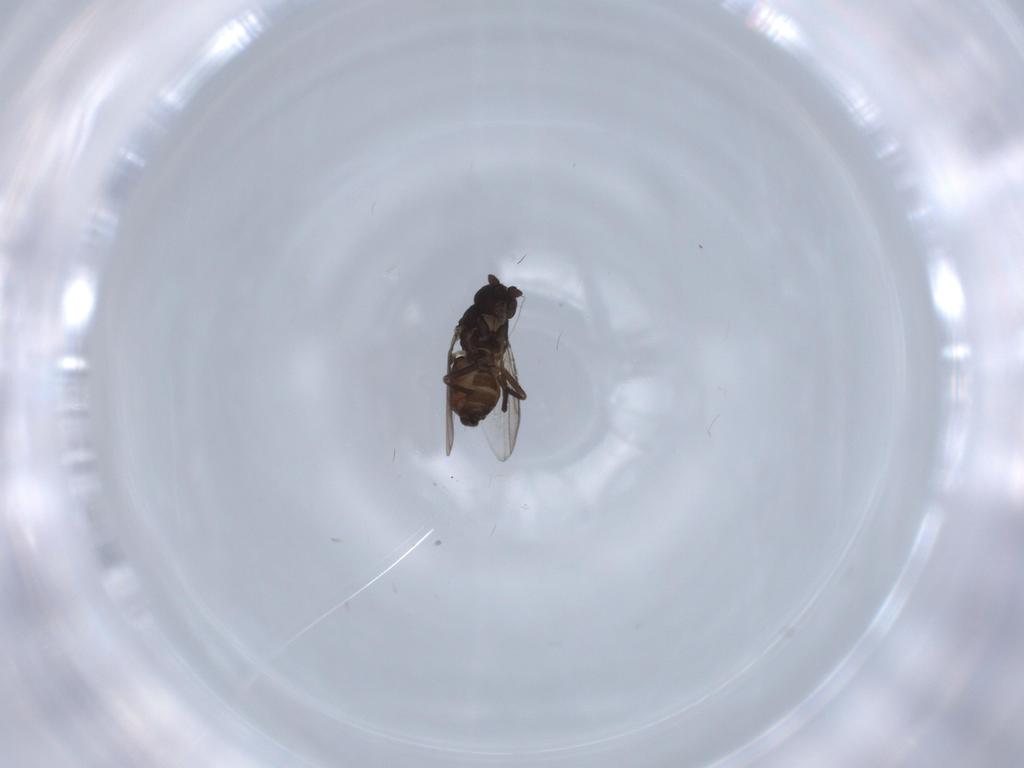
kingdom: Animalia
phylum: Arthropoda
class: Insecta
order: Diptera
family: Sphaeroceridae
